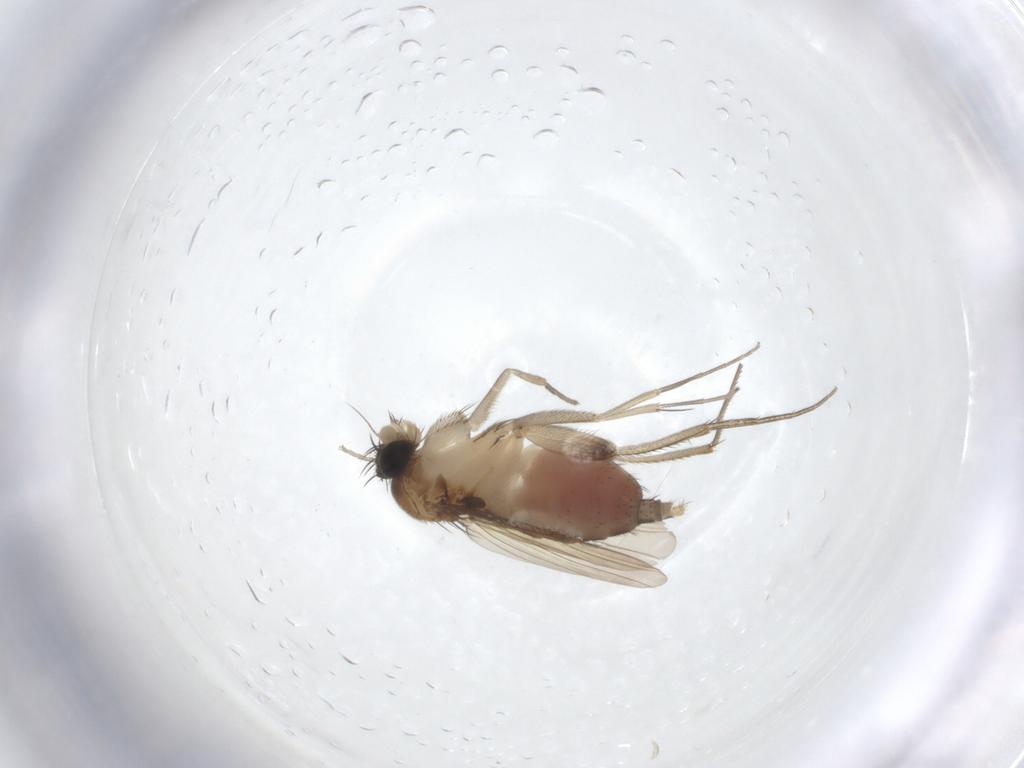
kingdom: Animalia
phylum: Arthropoda
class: Insecta
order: Diptera
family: Phoridae
